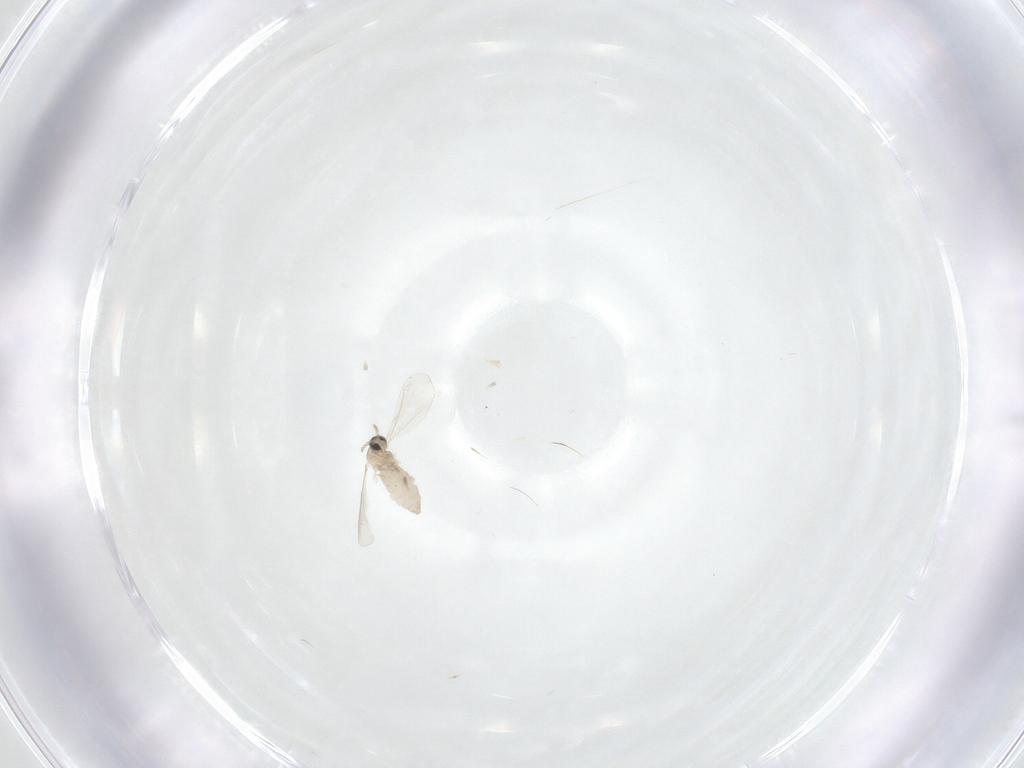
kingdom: Animalia
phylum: Arthropoda
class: Insecta
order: Diptera
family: Cecidomyiidae
